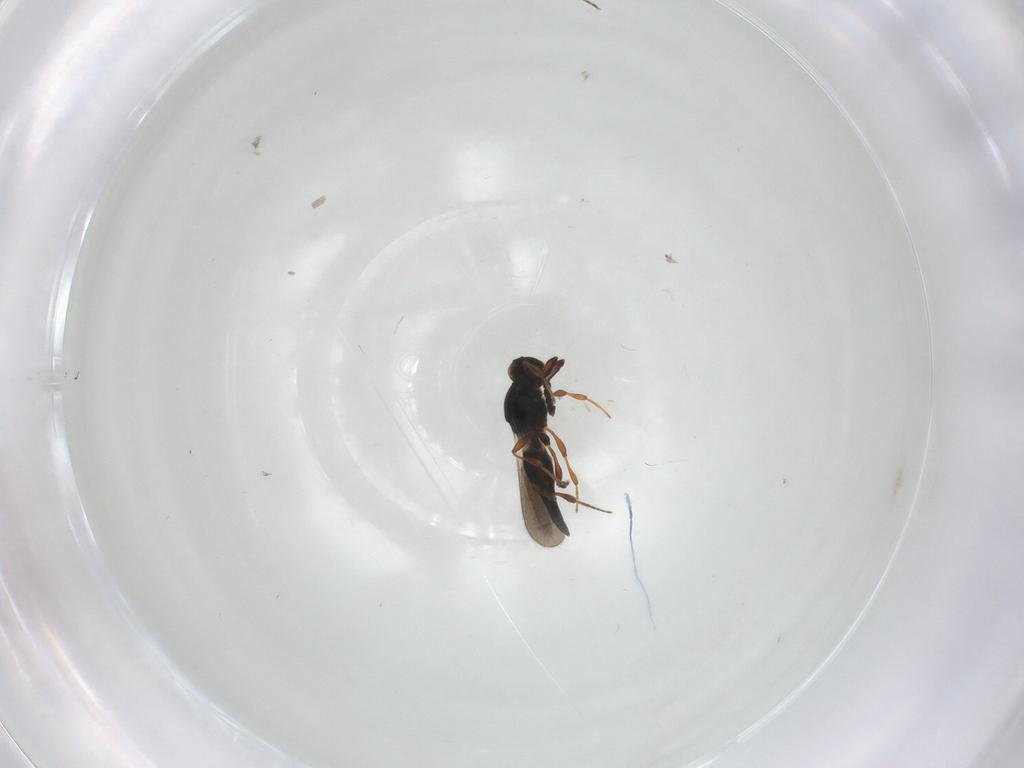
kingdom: Animalia
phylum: Arthropoda
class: Insecta
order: Hymenoptera
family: Platygastridae
